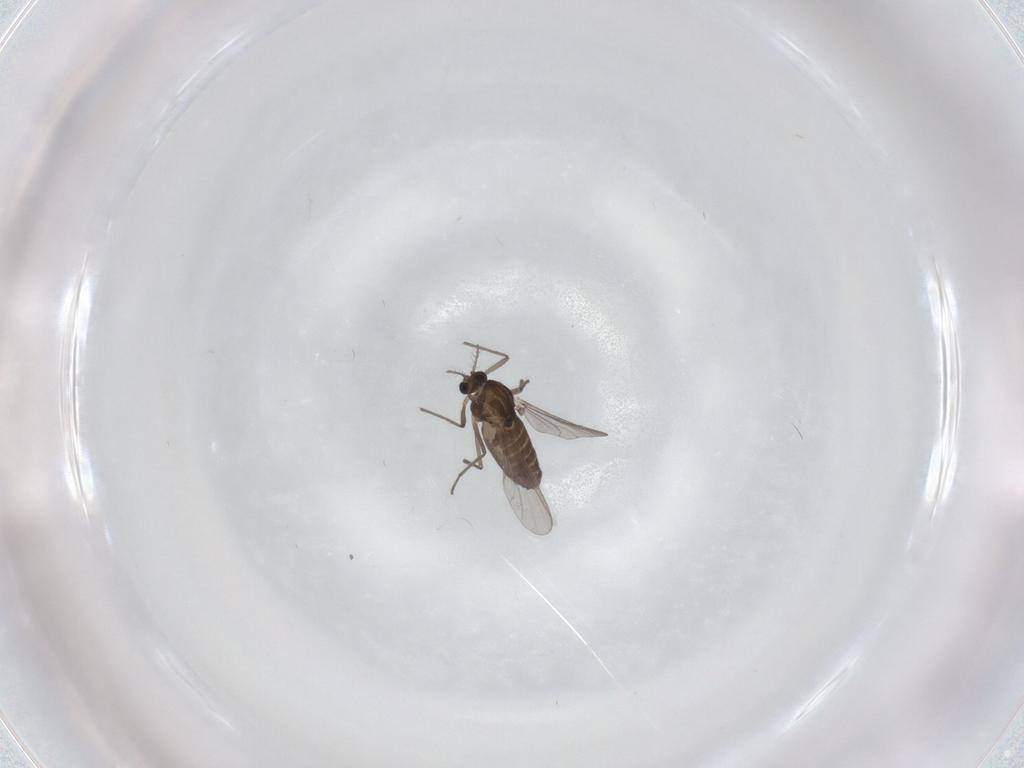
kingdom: Animalia
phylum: Arthropoda
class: Insecta
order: Diptera
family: Chironomidae
